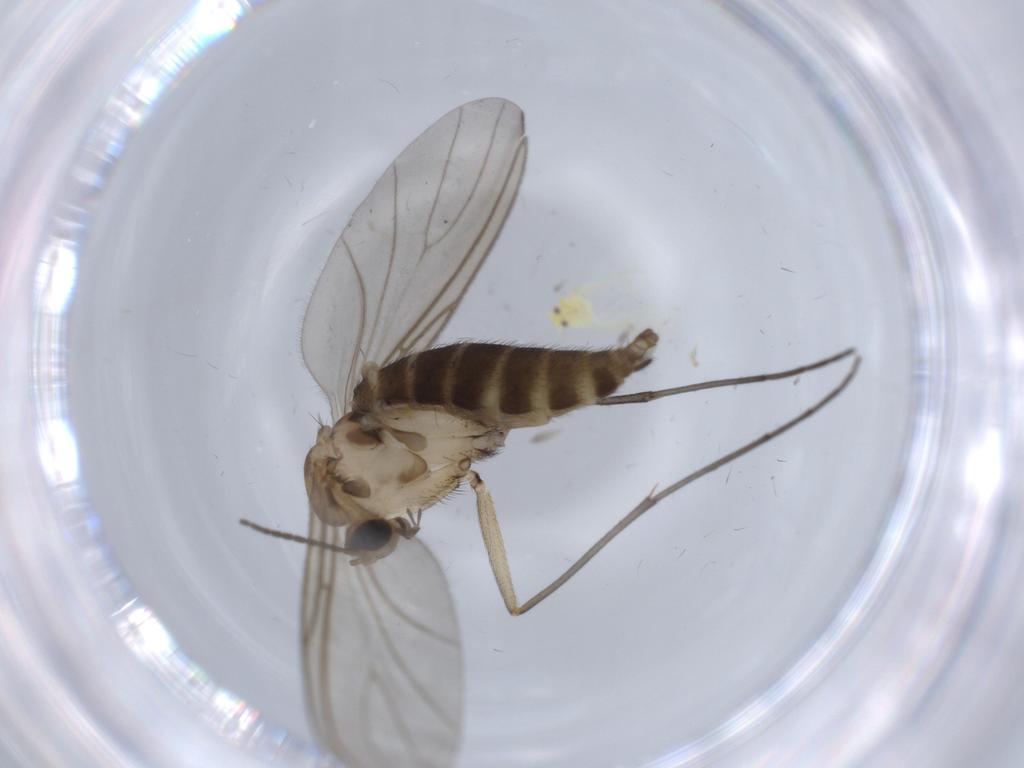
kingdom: Animalia
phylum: Arthropoda
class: Insecta
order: Diptera
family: Sciaridae
